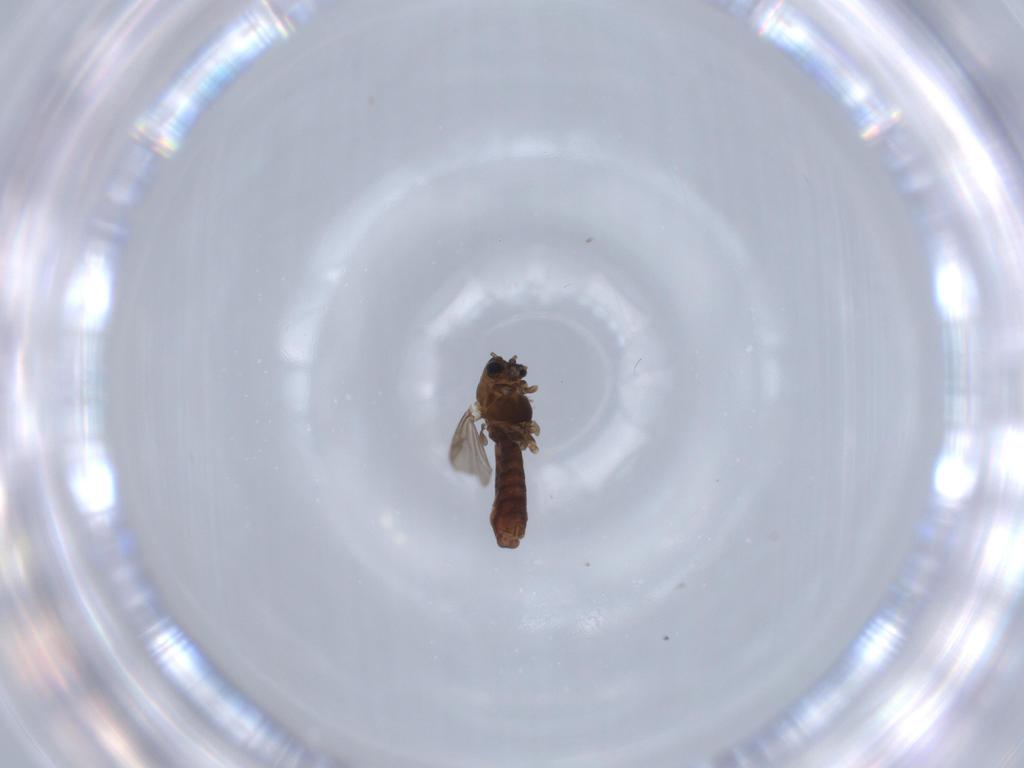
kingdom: Animalia
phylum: Arthropoda
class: Insecta
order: Diptera
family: Chironomidae
